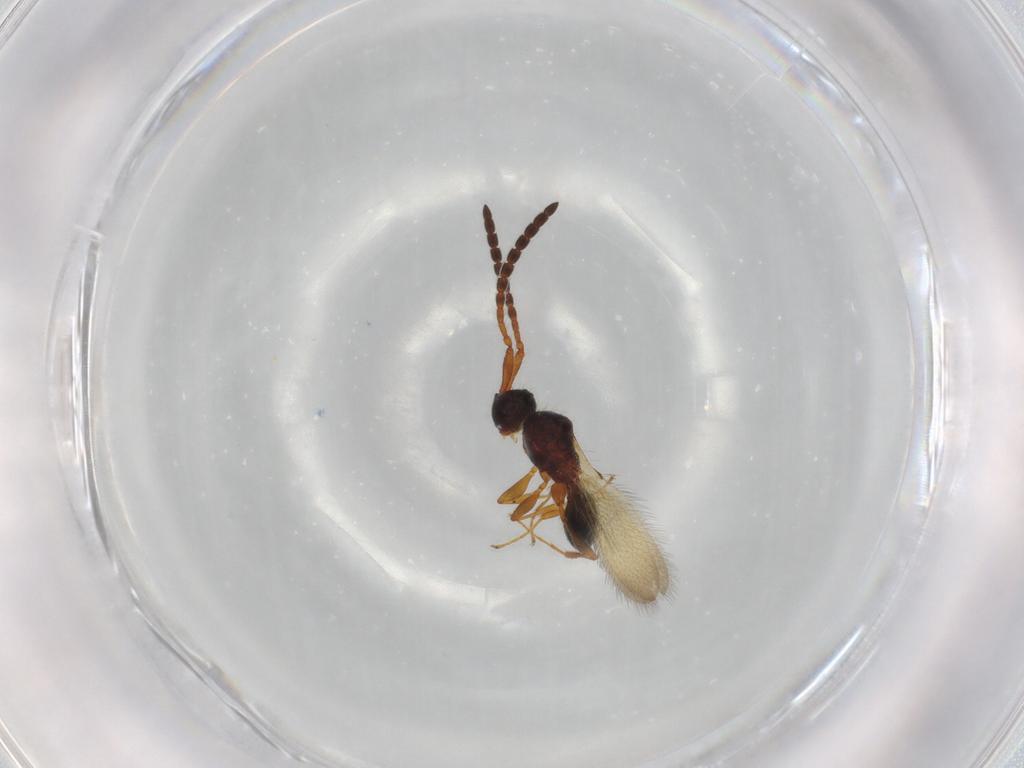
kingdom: Animalia
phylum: Arthropoda
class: Insecta
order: Hymenoptera
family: Diapriidae
